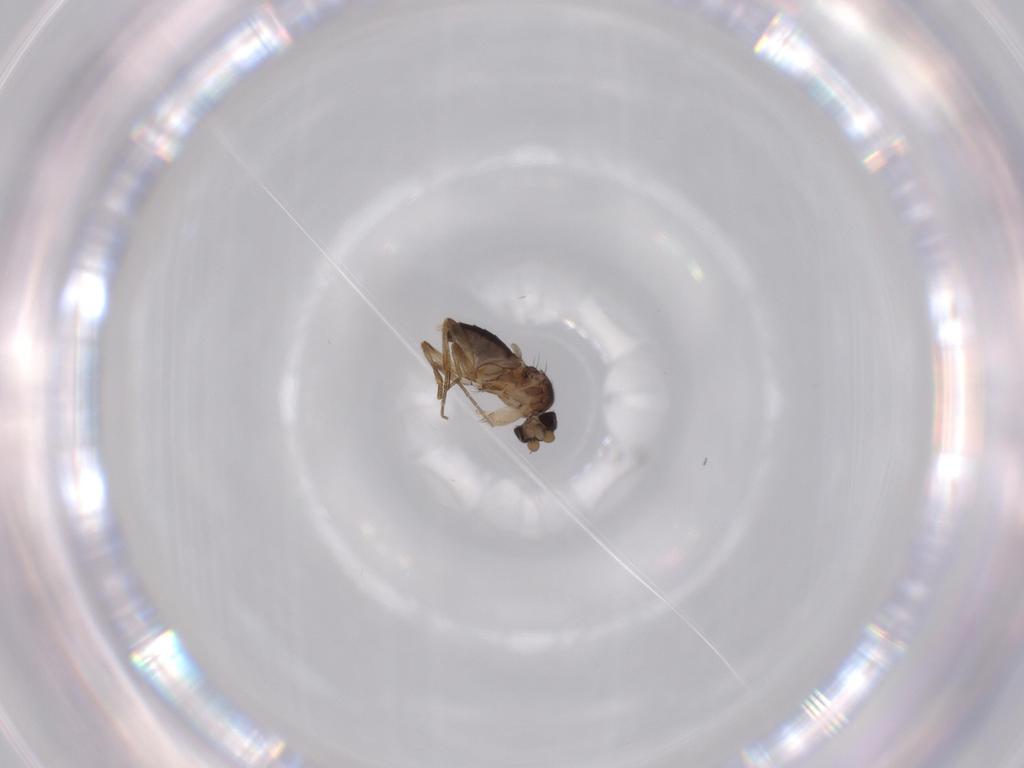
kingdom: Animalia
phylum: Arthropoda
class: Insecta
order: Diptera
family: Phoridae
